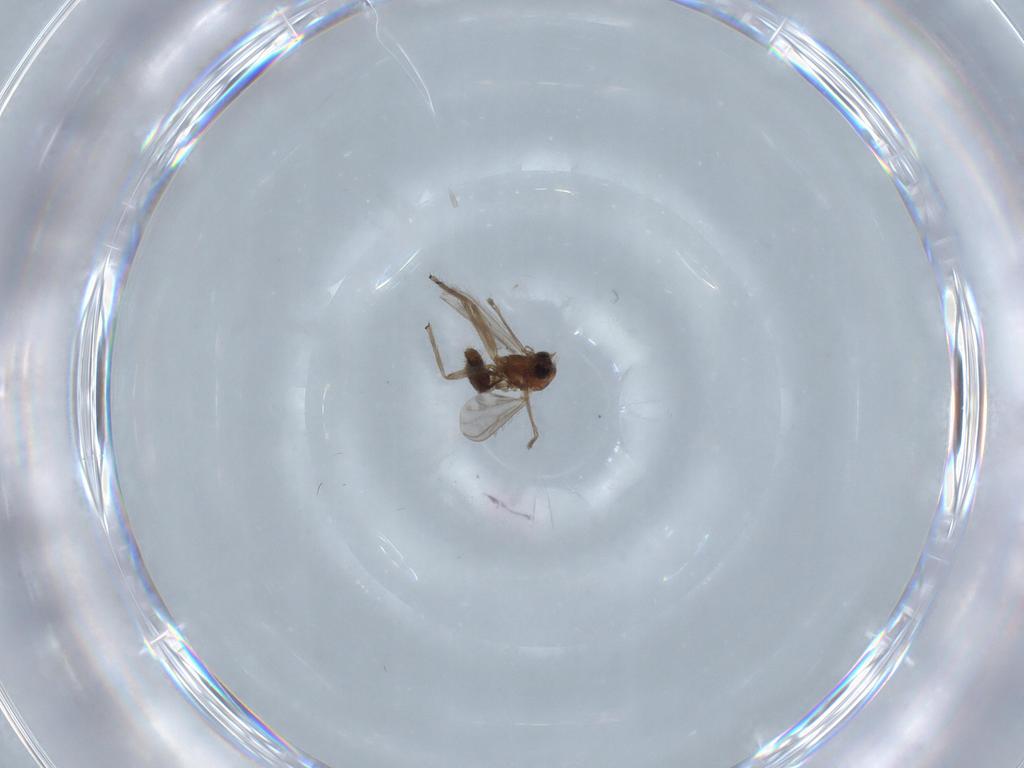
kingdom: Animalia
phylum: Arthropoda
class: Insecta
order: Diptera
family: Chironomidae
